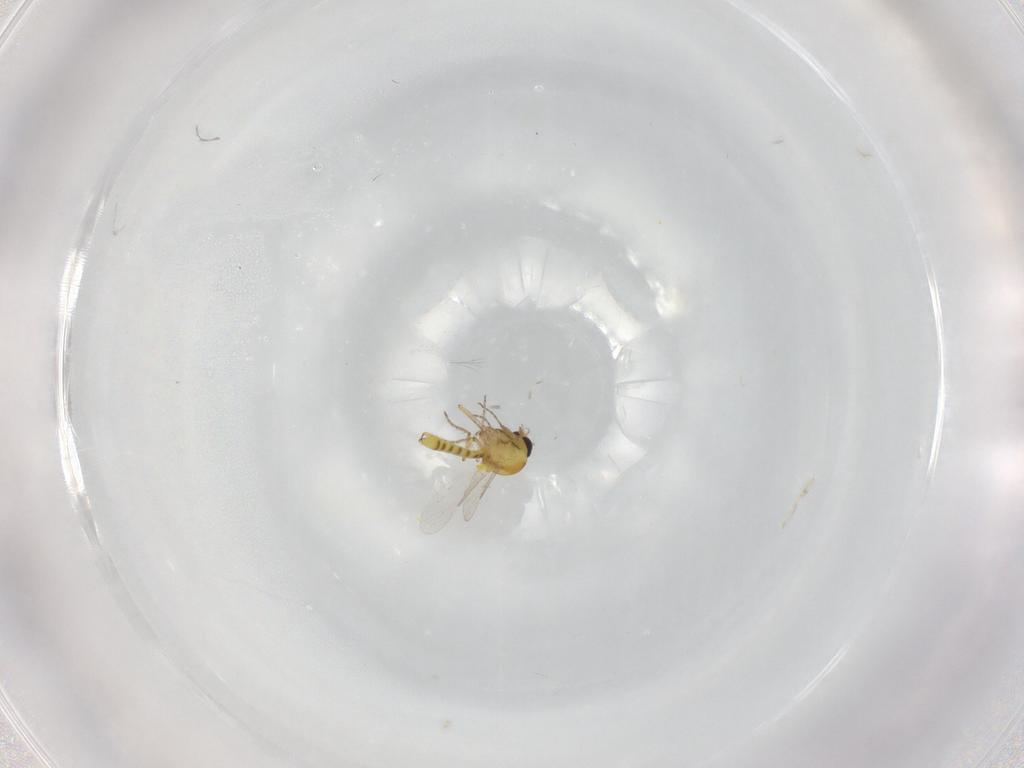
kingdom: Animalia
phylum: Arthropoda
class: Insecta
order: Diptera
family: Ceratopogonidae
